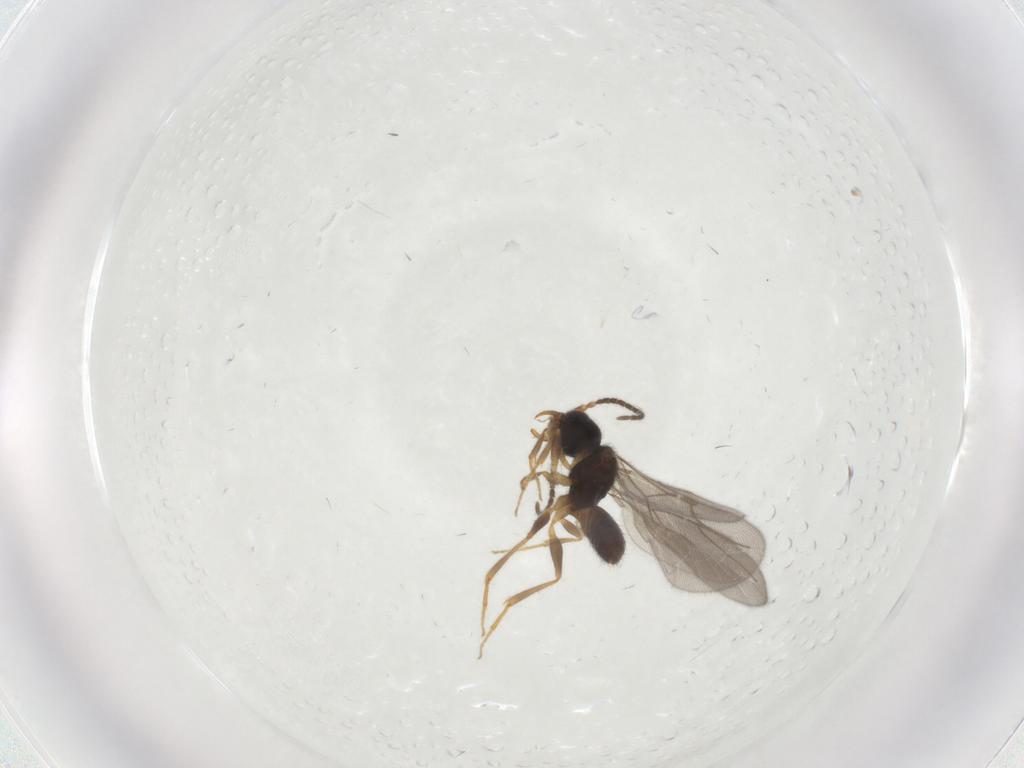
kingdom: Animalia
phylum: Arthropoda
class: Insecta
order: Hymenoptera
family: Bethylidae
